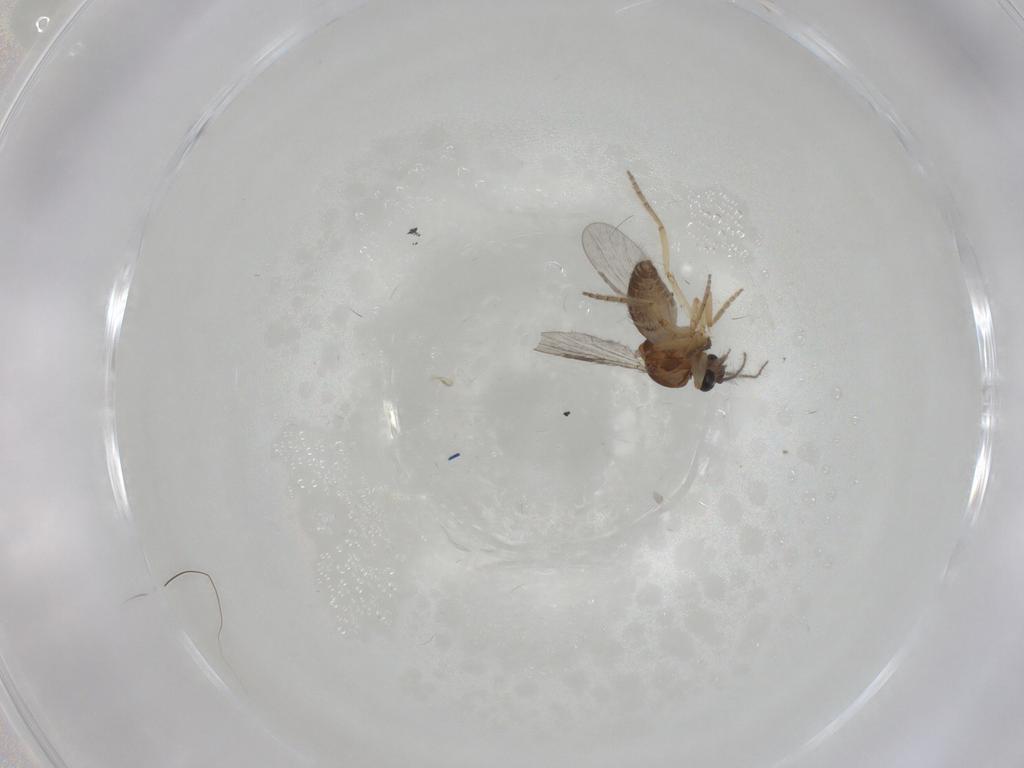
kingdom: Animalia
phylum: Arthropoda
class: Insecta
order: Diptera
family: Ceratopogonidae
